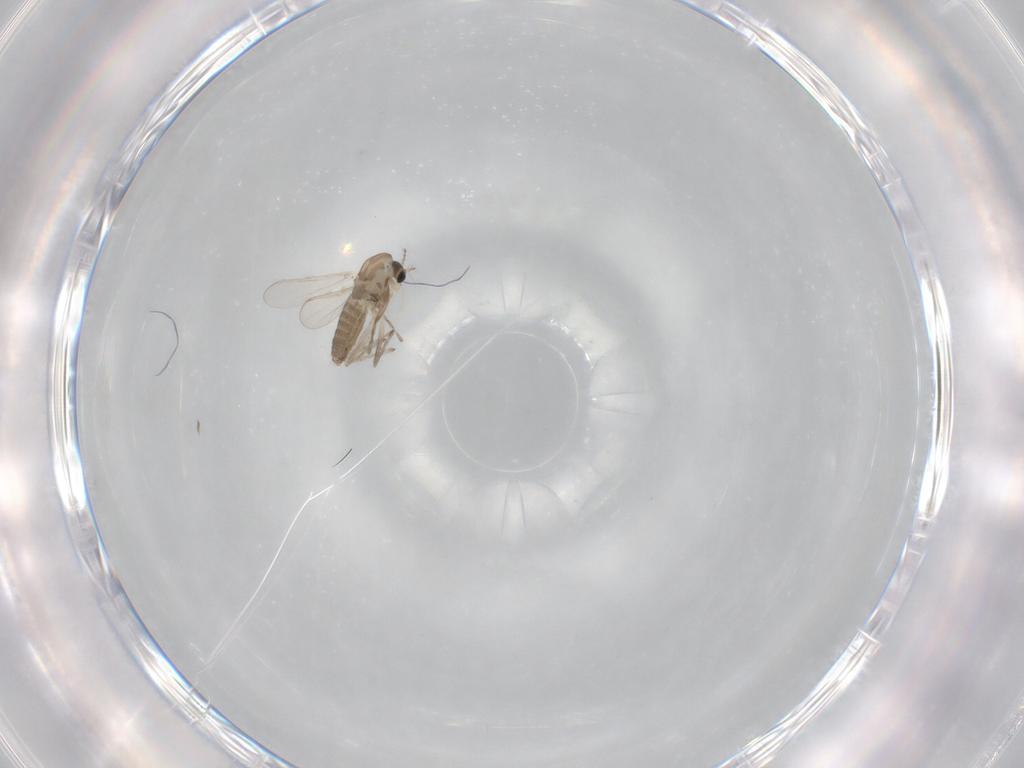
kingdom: Animalia
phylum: Arthropoda
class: Insecta
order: Diptera
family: Chironomidae
